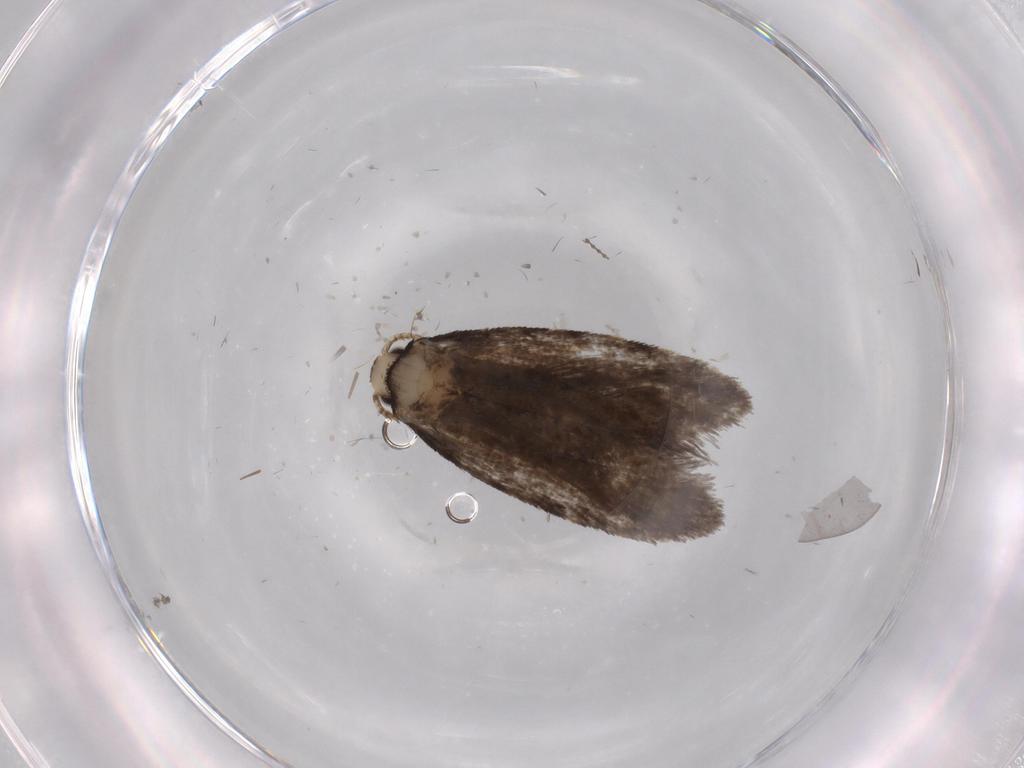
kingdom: Animalia
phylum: Arthropoda
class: Insecta
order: Lepidoptera
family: Psychidae
